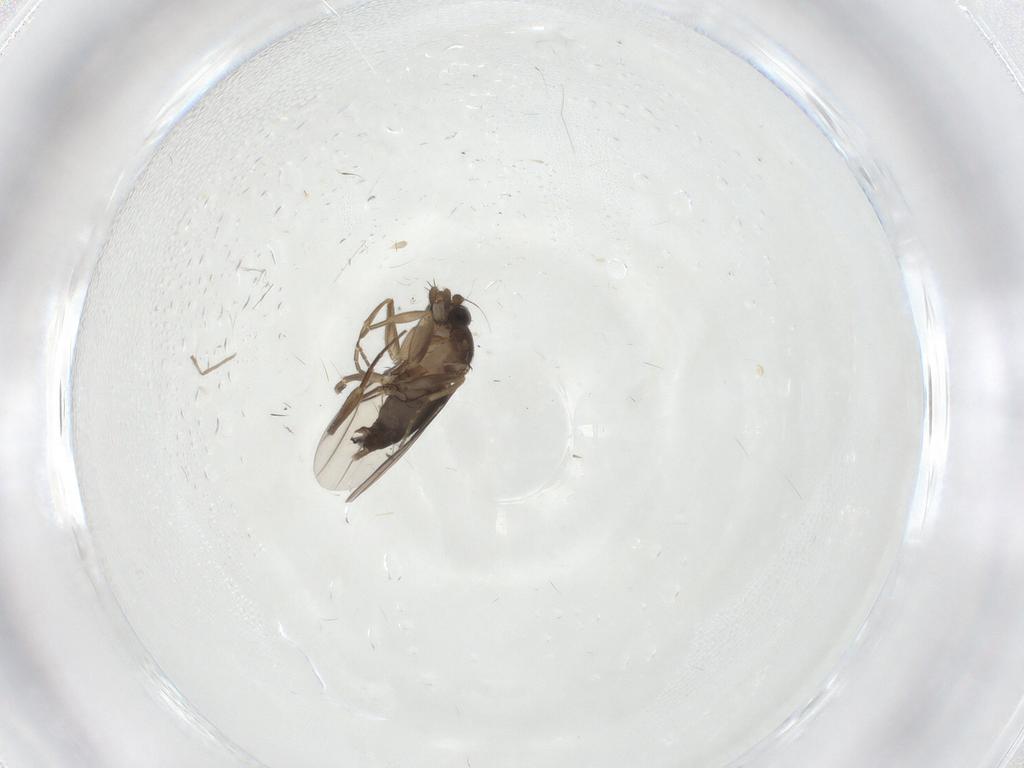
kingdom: Animalia
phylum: Arthropoda
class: Insecta
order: Diptera
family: Chironomidae
